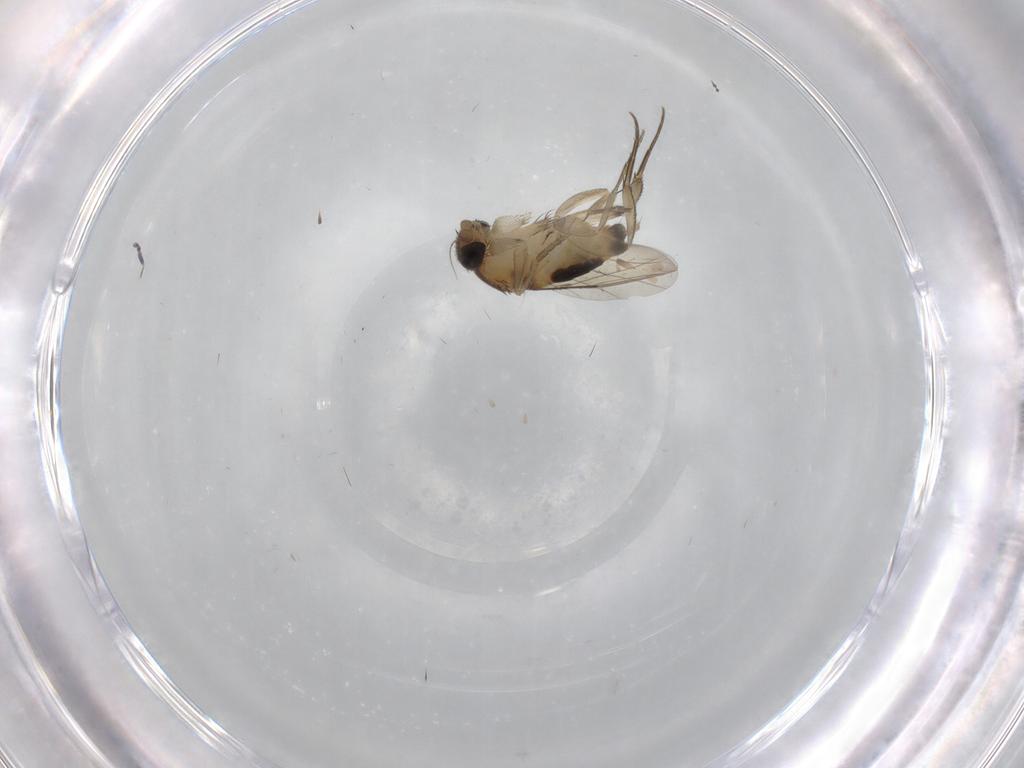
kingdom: Animalia
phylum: Arthropoda
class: Insecta
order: Diptera
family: Phoridae
